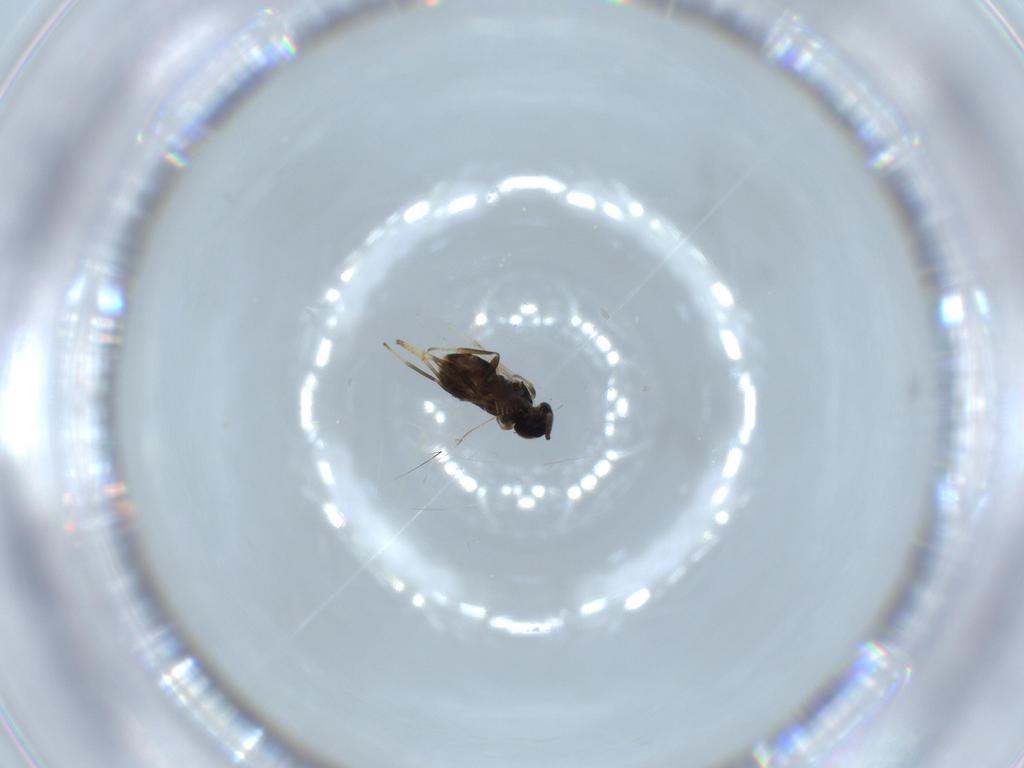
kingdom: Animalia
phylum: Arthropoda
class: Insecta
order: Hymenoptera
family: Encyrtidae
